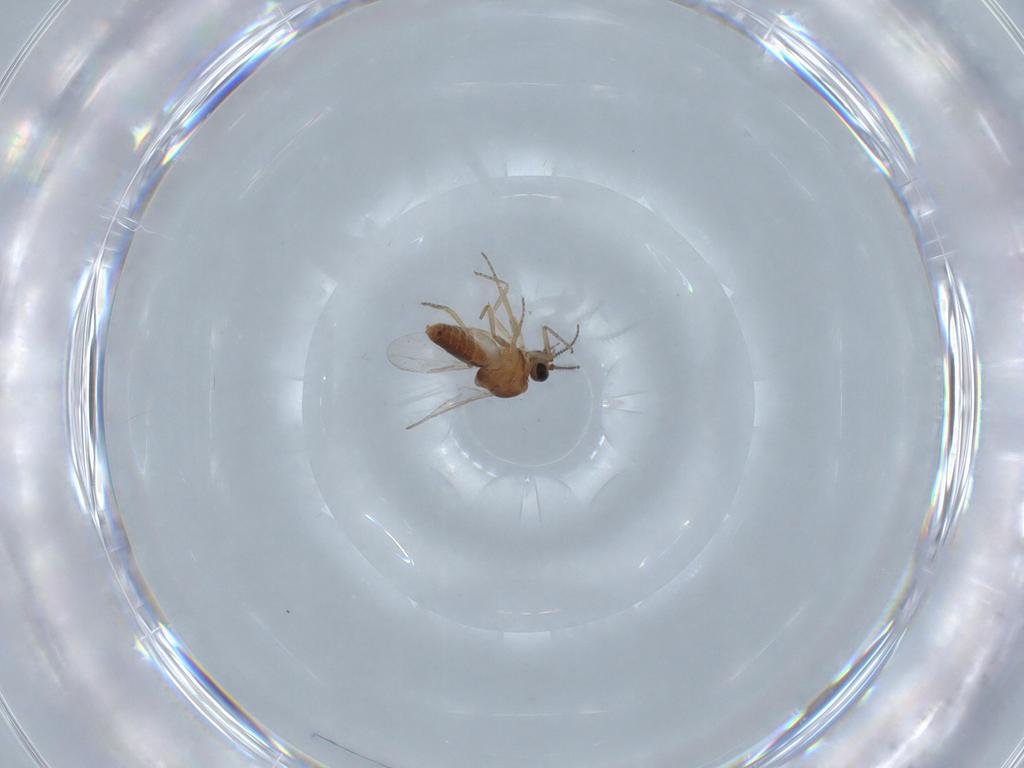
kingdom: Animalia
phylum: Arthropoda
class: Insecta
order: Diptera
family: Ceratopogonidae
